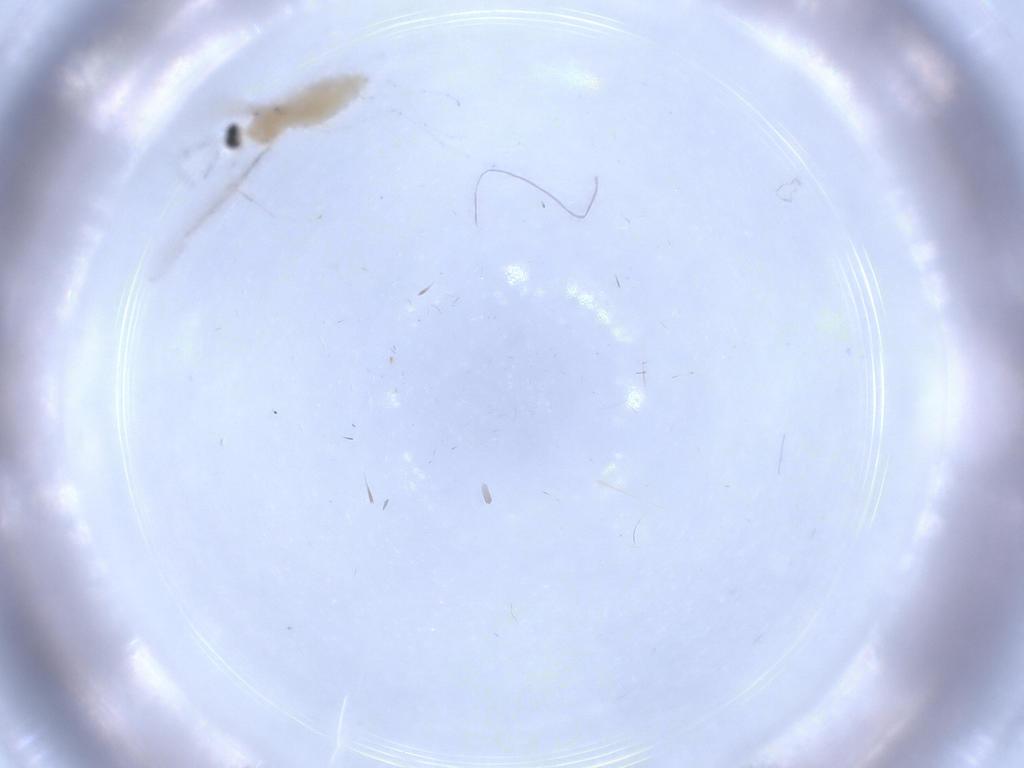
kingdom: Animalia
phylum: Arthropoda
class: Insecta
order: Diptera
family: Cecidomyiidae
